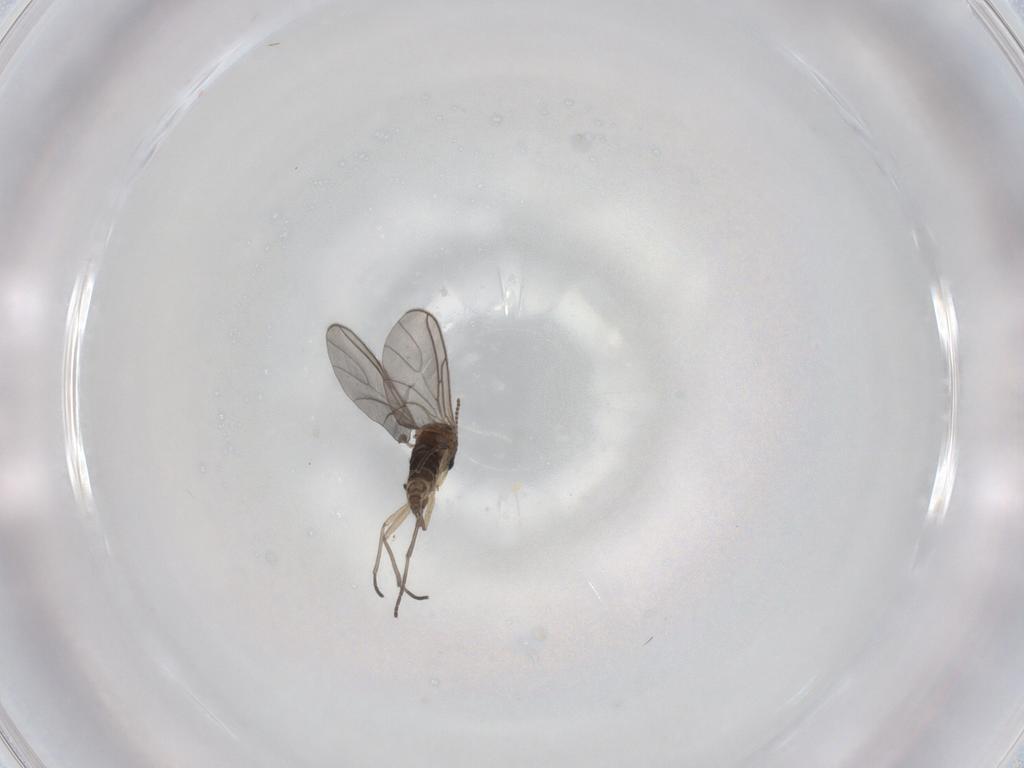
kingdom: Animalia
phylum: Arthropoda
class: Insecta
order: Diptera
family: Sciaridae
